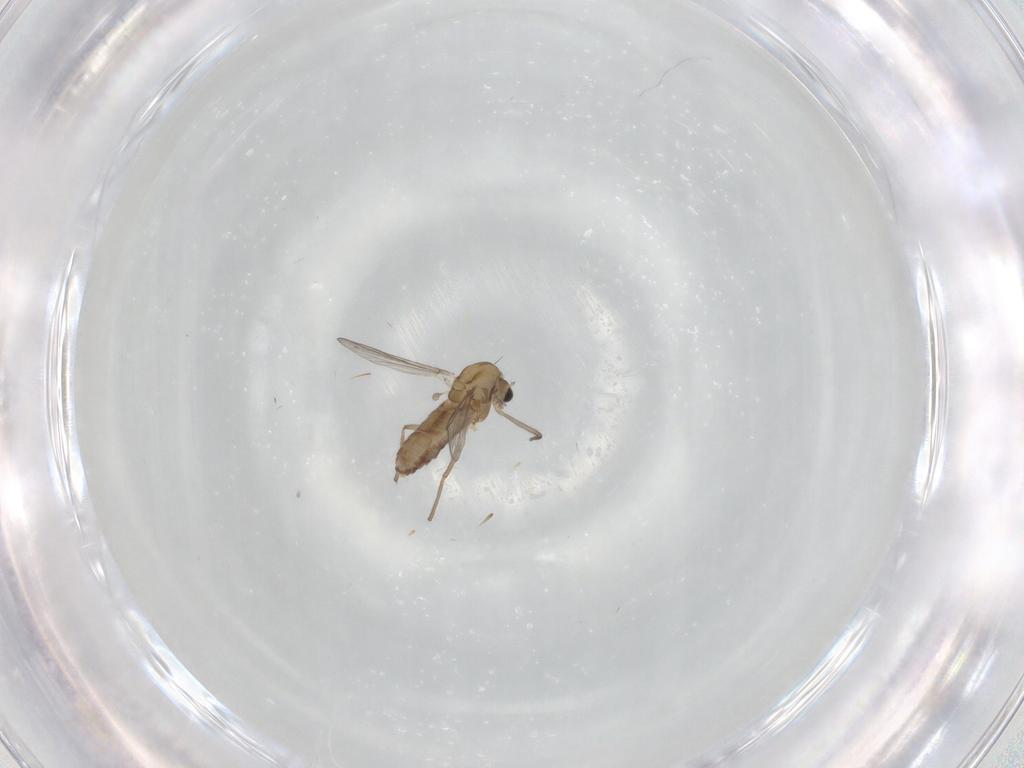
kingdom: Animalia
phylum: Arthropoda
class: Insecta
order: Diptera
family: Chironomidae
